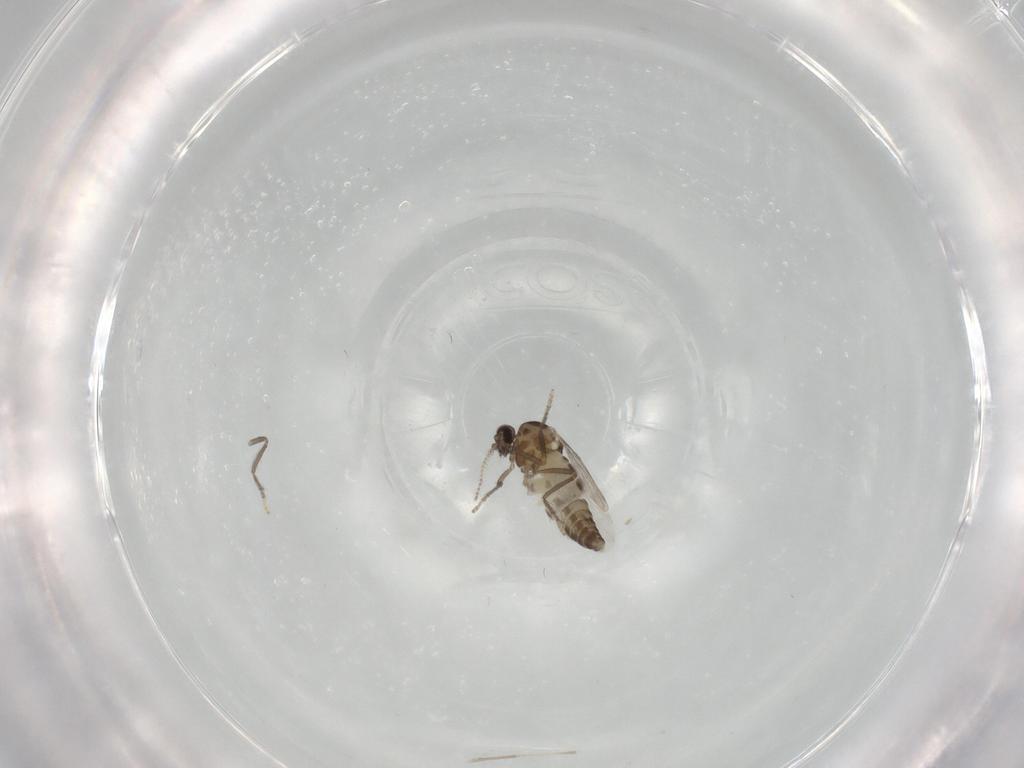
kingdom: Animalia
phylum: Arthropoda
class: Insecta
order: Diptera
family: Ceratopogonidae
